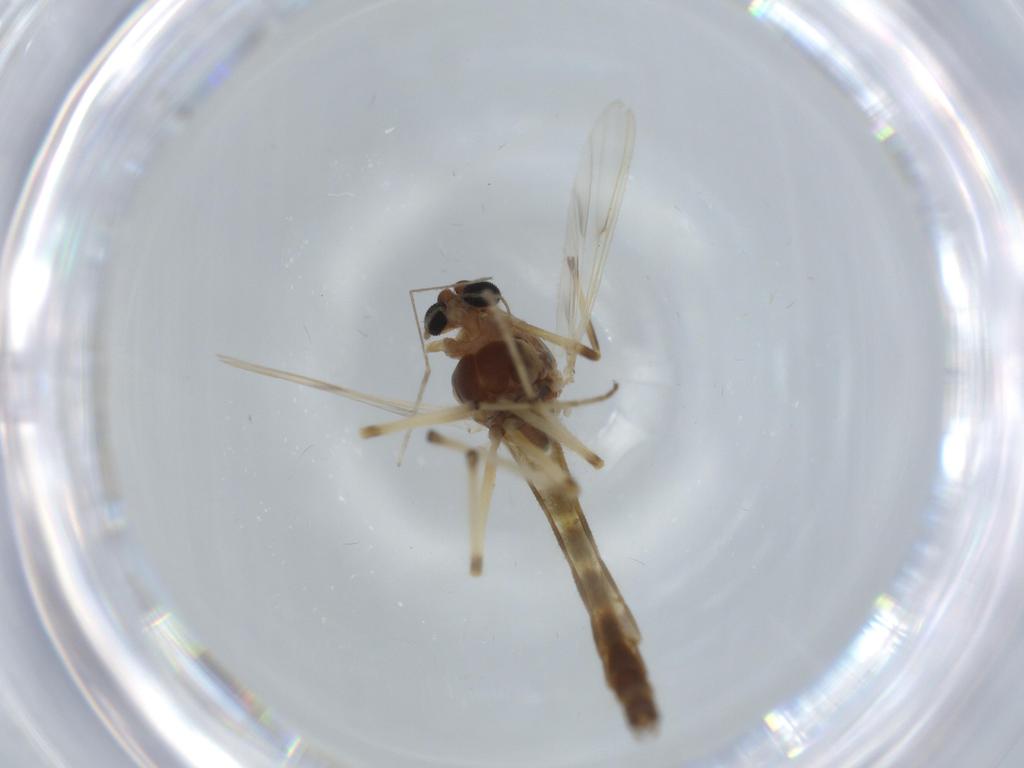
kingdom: Animalia
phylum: Arthropoda
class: Insecta
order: Diptera
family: Cecidomyiidae
